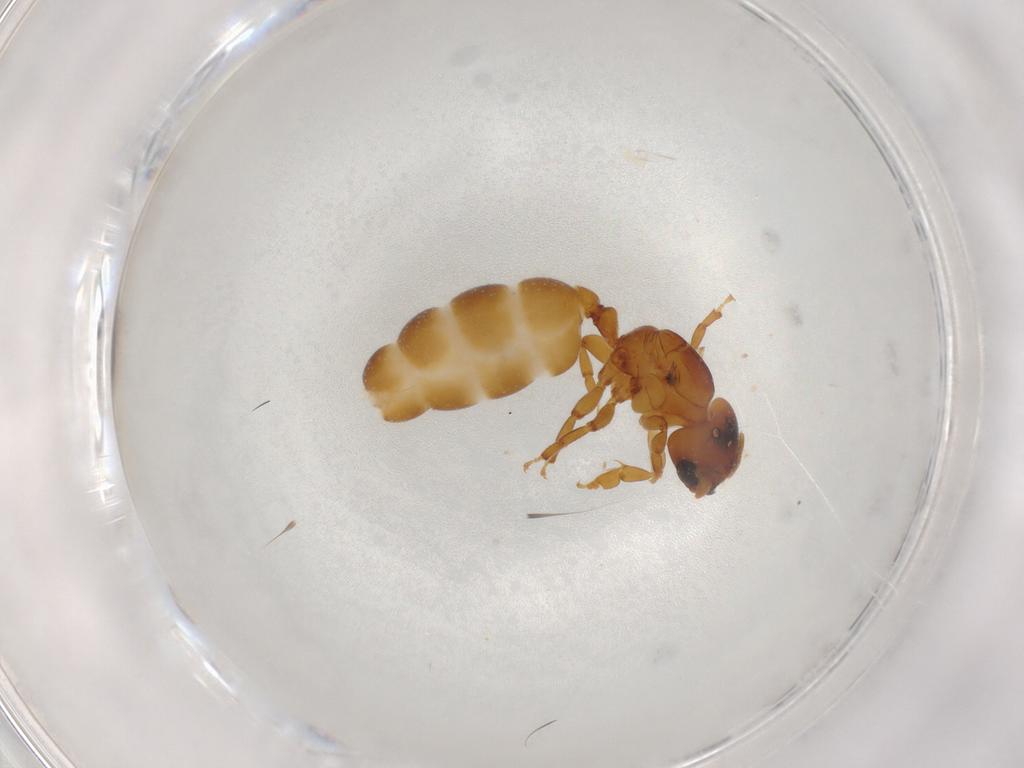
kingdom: Animalia
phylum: Arthropoda
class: Insecta
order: Hymenoptera
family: Formicidae
